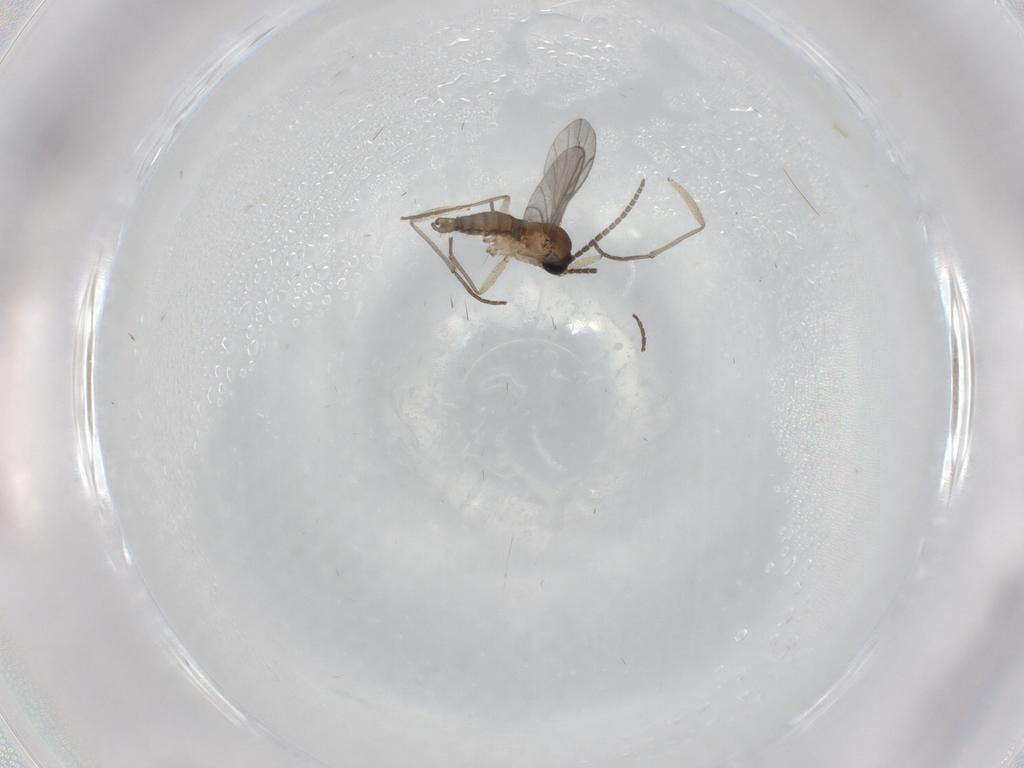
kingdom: Animalia
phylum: Arthropoda
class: Insecta
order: Diptera
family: Sciaridae
